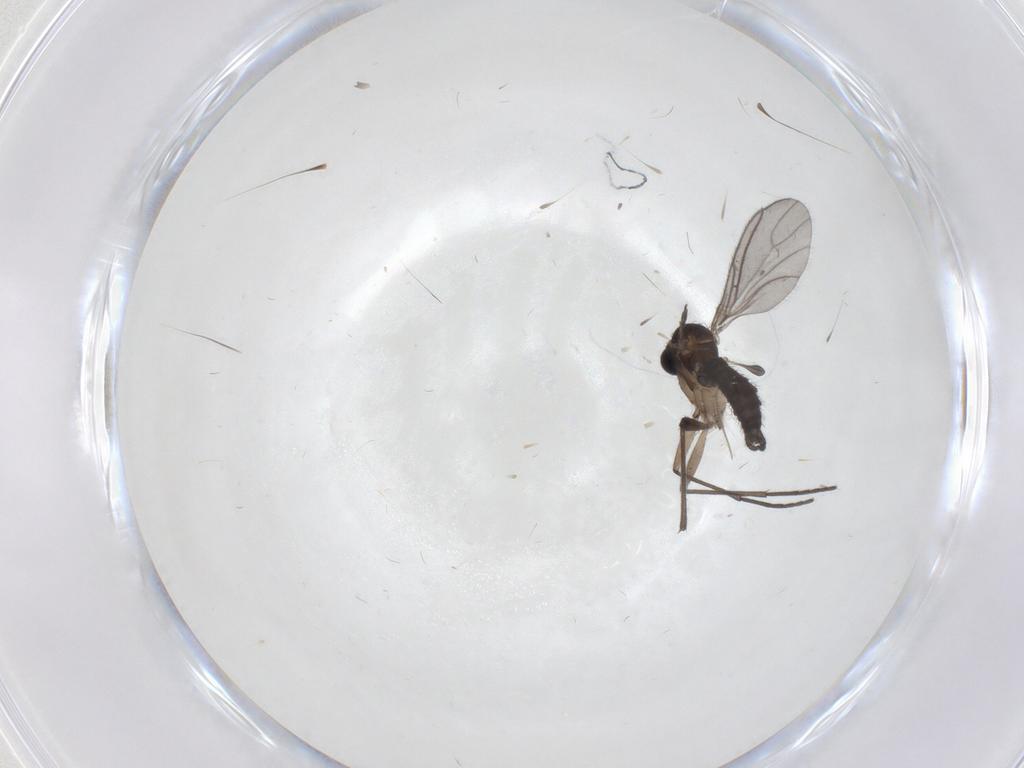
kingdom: Animalia
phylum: Arthropoda
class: Insecta
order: Diptera
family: Sciaridae
